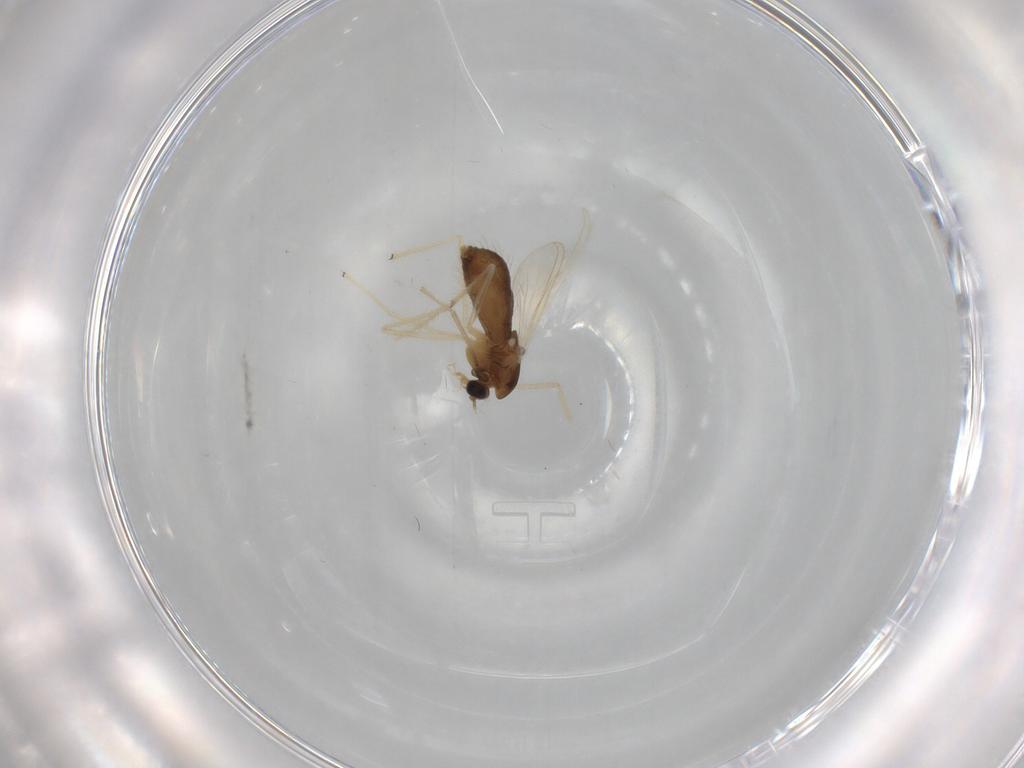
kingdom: Animalia
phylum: Arthropoda
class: Insecta
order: Diptera
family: Chironomidae
